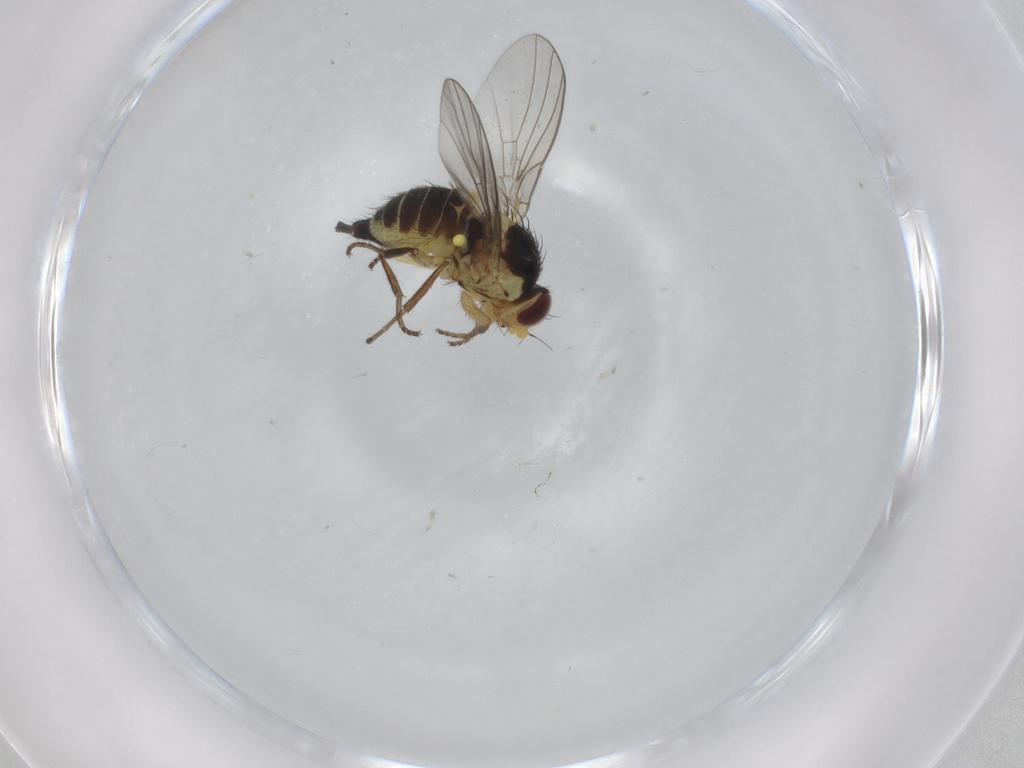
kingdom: Animalia
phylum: Arthropoda
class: Insecta
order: Diptera
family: Agromyzidae
